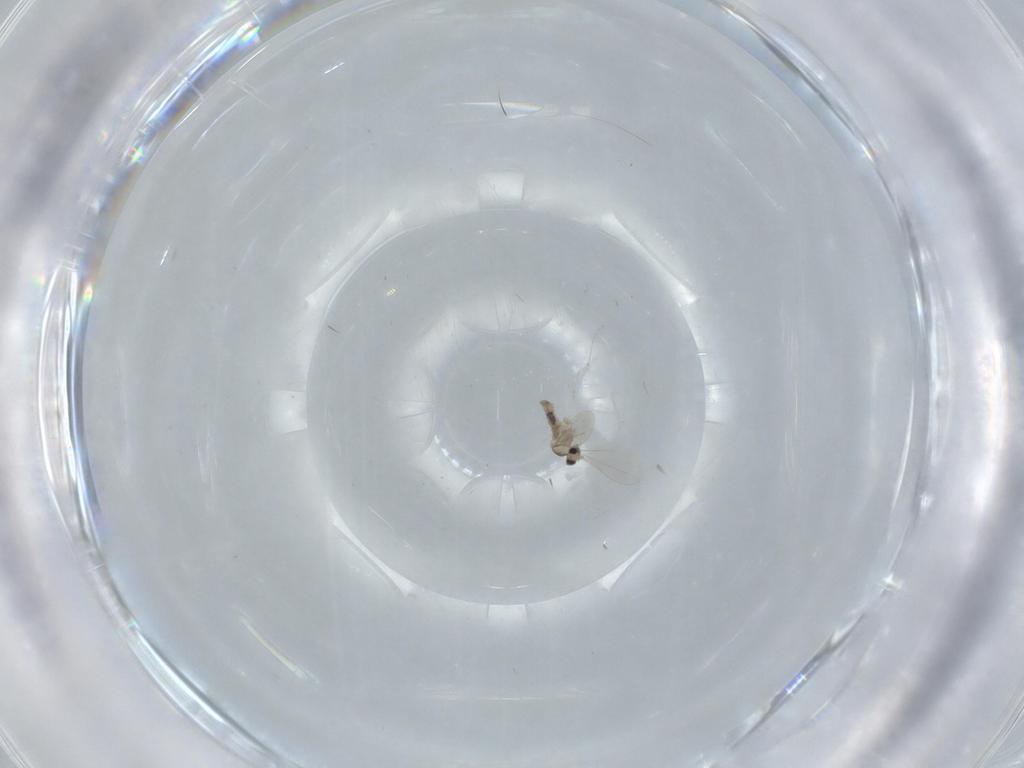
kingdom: Animalia
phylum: Arthropoda
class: Insecta
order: Diptera
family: Cecidomyiidae
